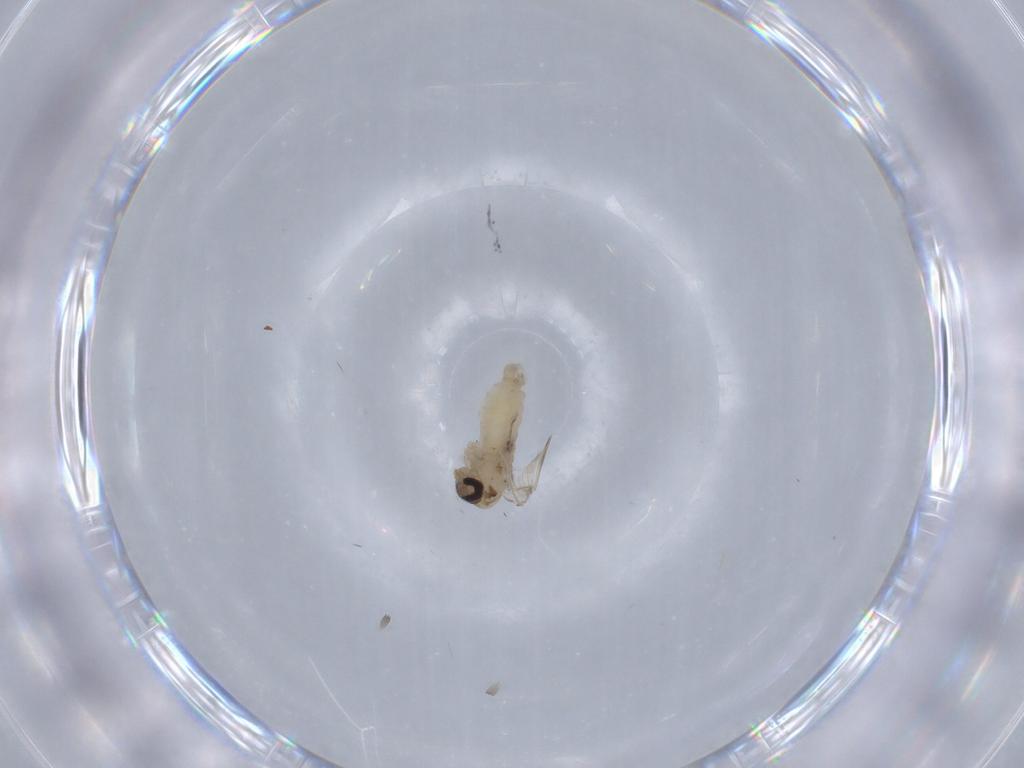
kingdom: Animalia
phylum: Arthropoda
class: Insecta
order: Diptera
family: Psychodidae
